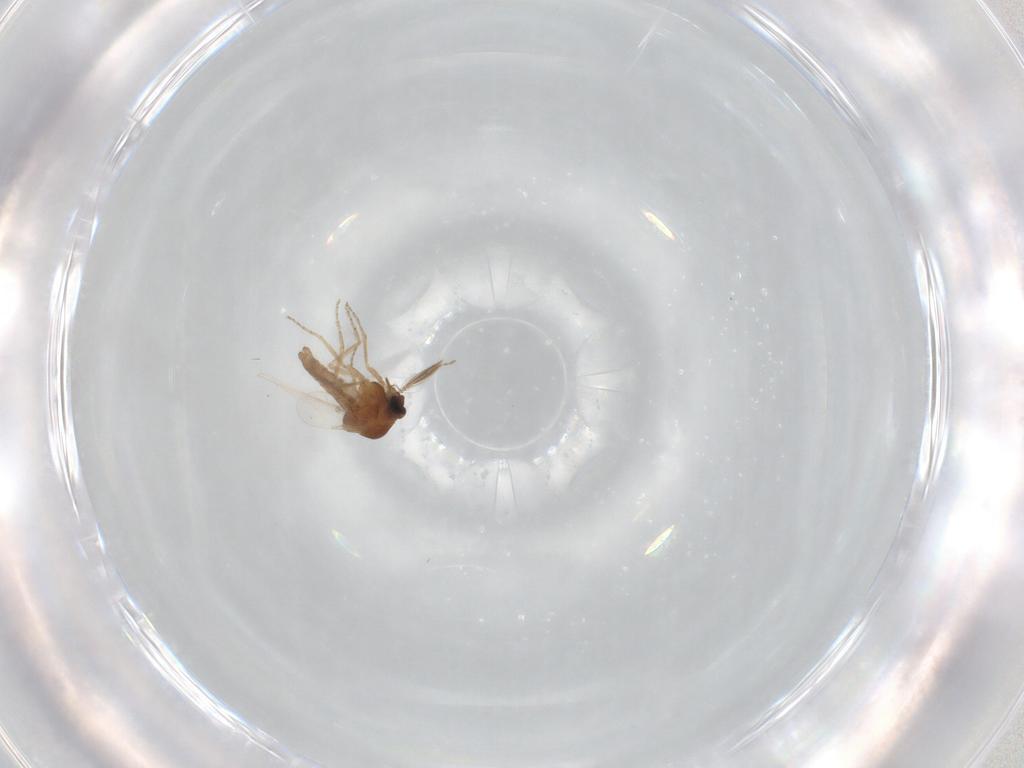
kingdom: Animalia
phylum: Arthropoda
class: Insecta
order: Diptera
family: Ceratopogonidae
